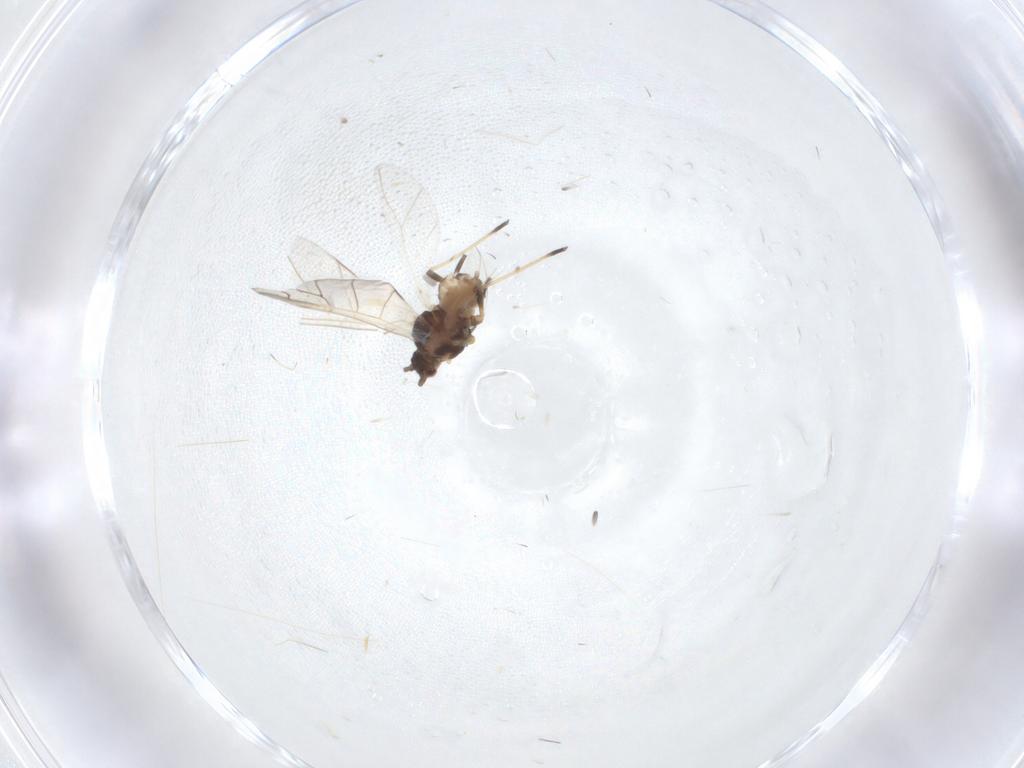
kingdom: Animalia
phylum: Arthropoda
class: Insecta
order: Hemiptera
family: Aphididae
